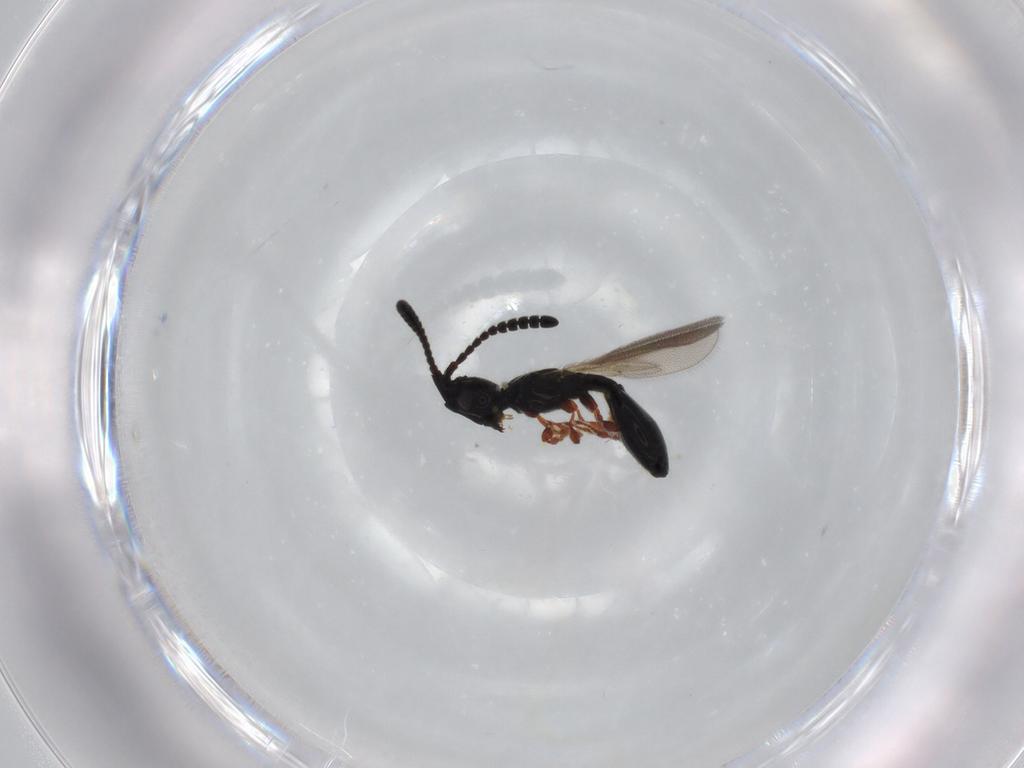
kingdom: Animalia
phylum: Arthropoda
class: Insecta
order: Hymenoptera
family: Diapriidae
